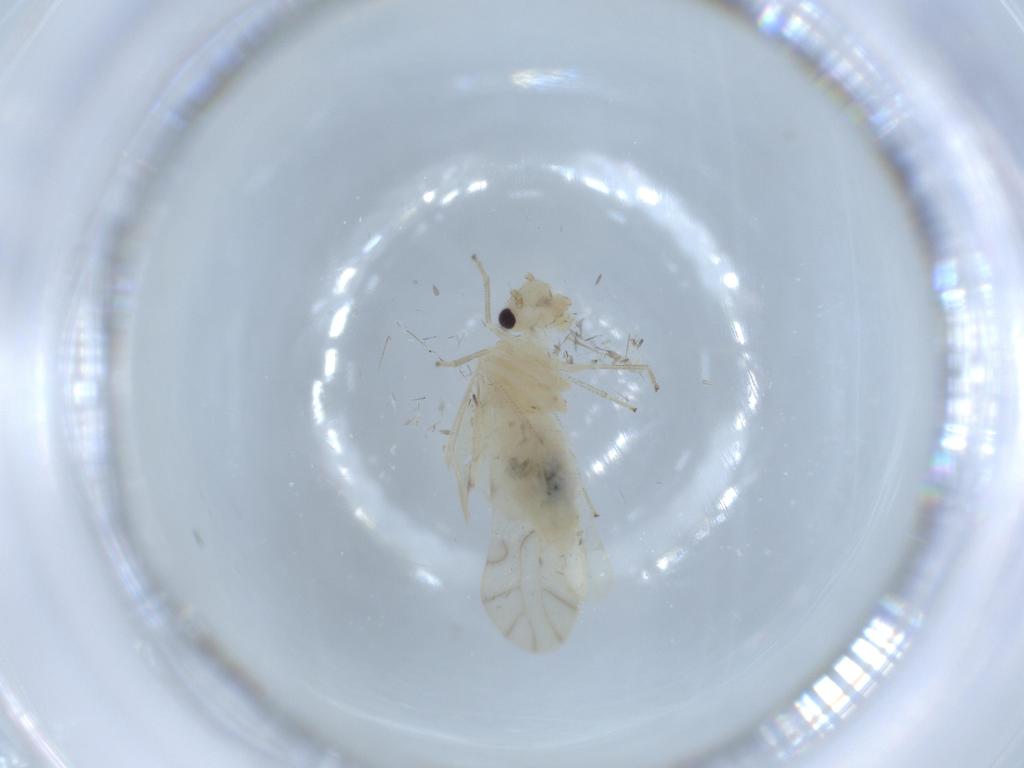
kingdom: Animalia
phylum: Arthropoda
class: Insecta
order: Psocodea
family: Caeciliusidae
